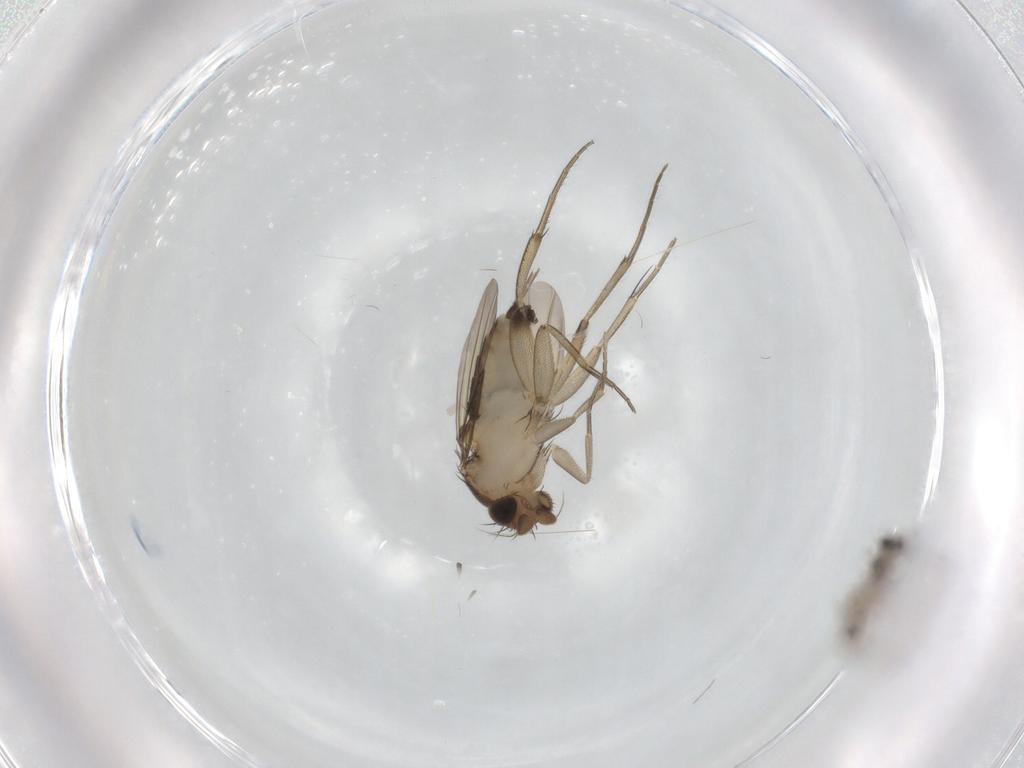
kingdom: Animalia
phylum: Arthropoda
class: Insecta
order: Diptera
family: Phoridae
